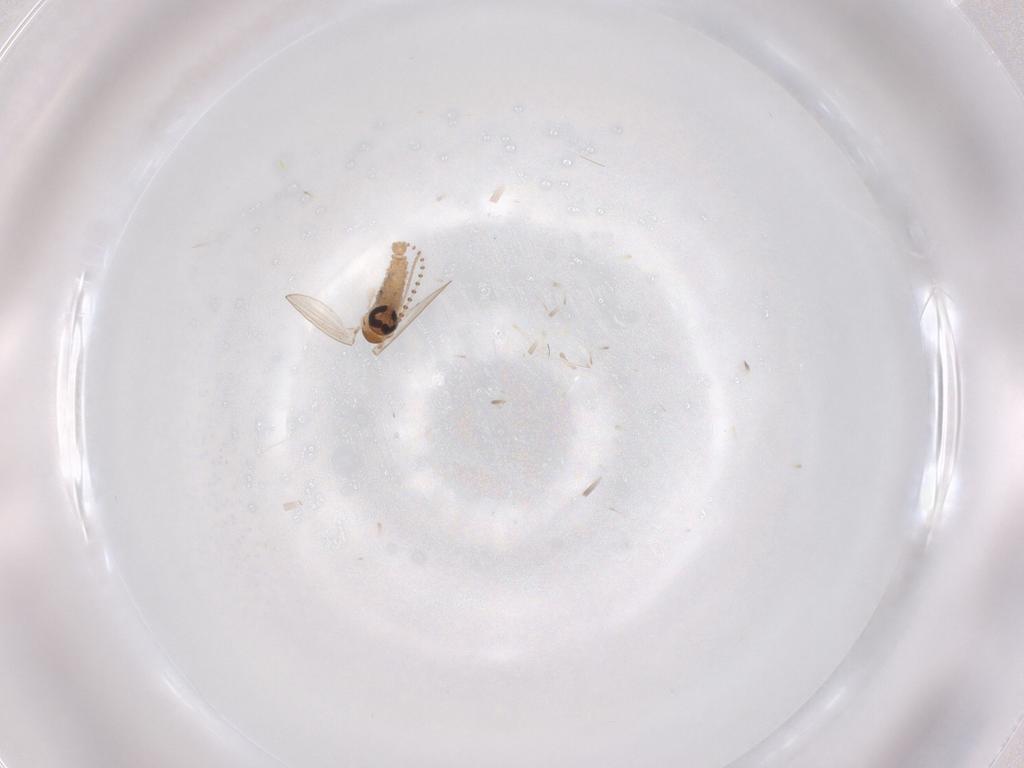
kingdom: Animalia
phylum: Arthropoda
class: Insecta
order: Diptera
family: Psychodidae
